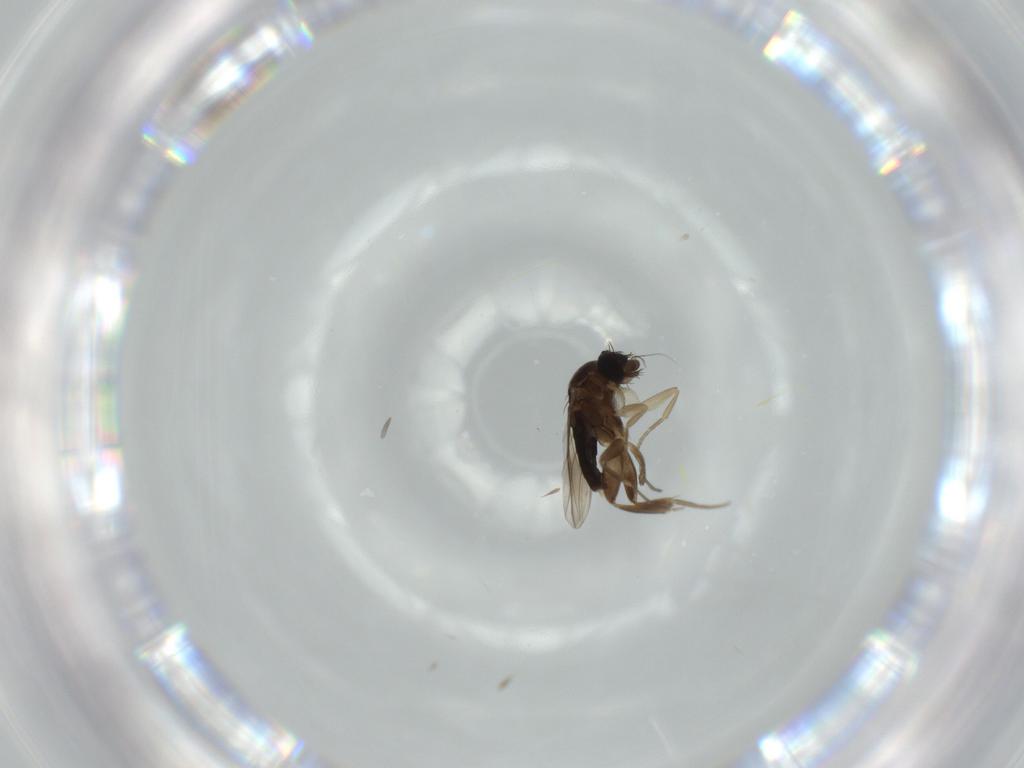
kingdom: Animalia
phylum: Arthropoda
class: Insecta
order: Diptera
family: Phoridae
